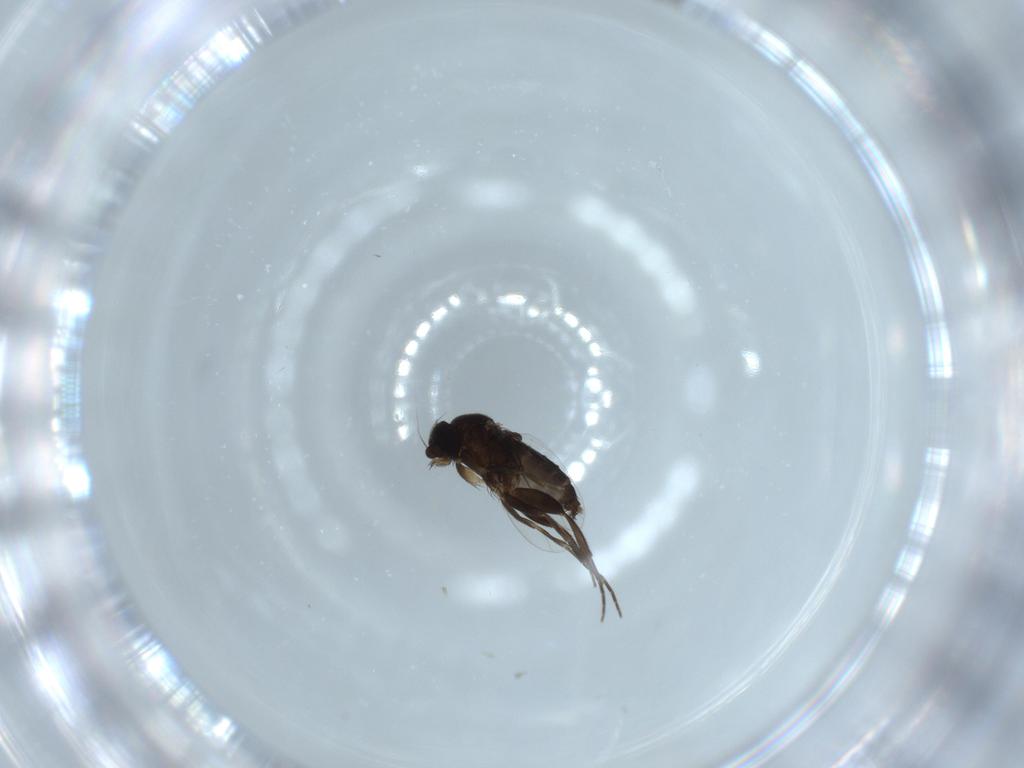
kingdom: Animalia
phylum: Arthropoda
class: Insecta
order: Diptera
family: Phoridae
